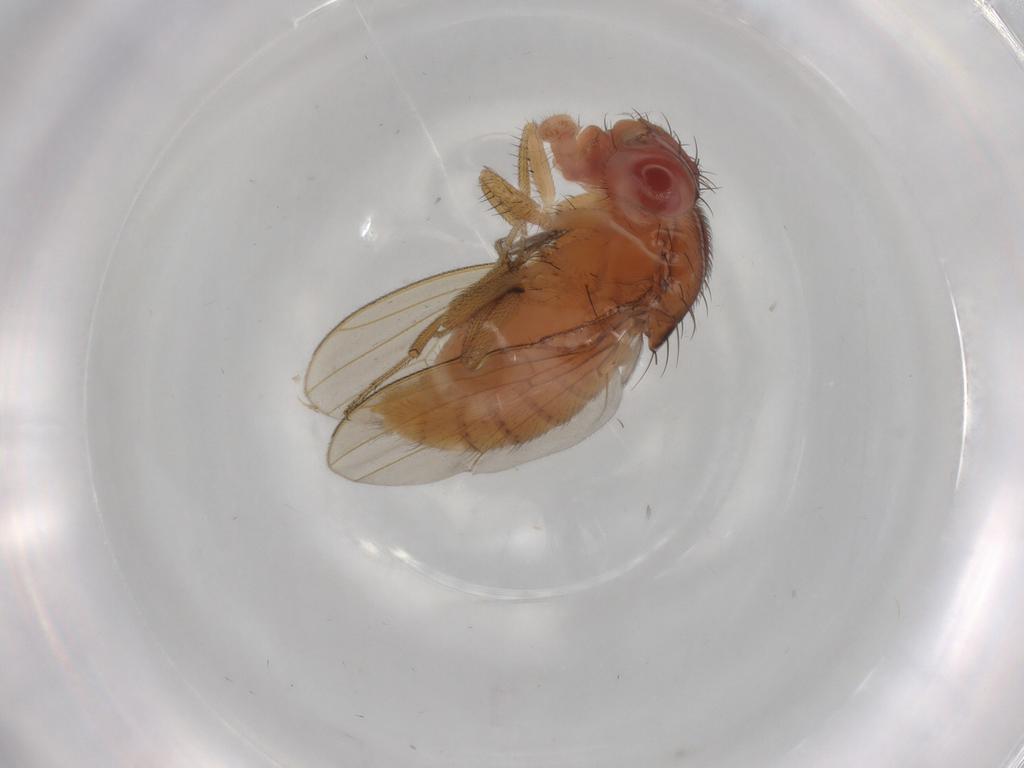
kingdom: Animalia
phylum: Arthropoda
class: Insecta
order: Diptera
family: Drosophilidae
